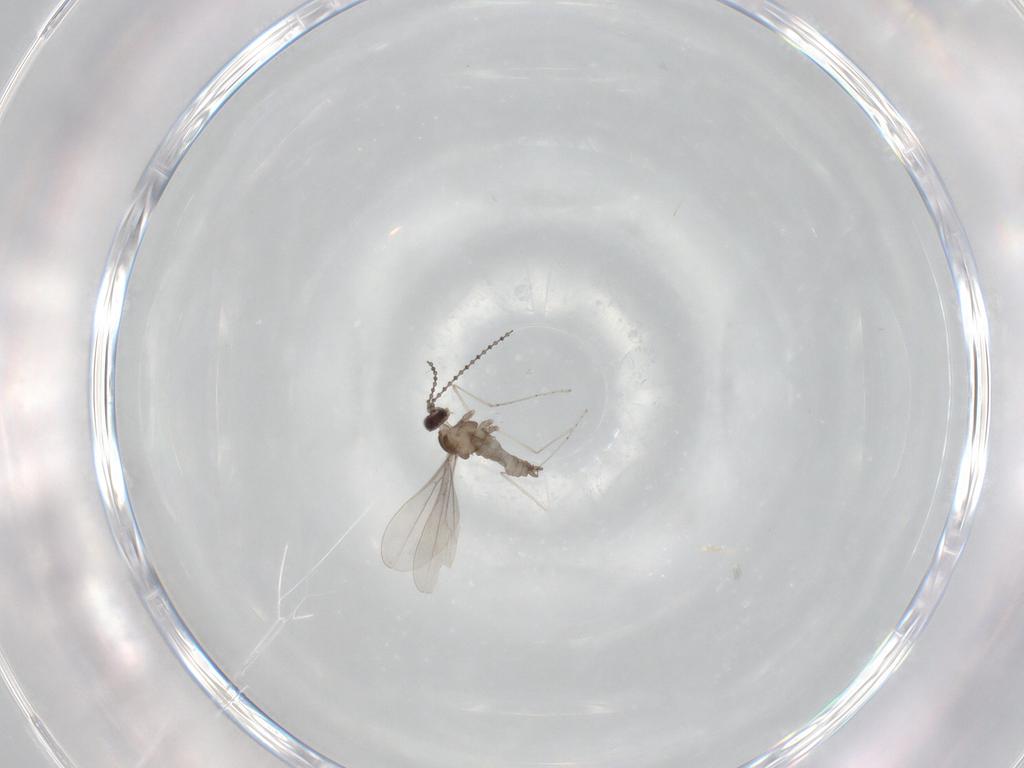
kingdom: Animalia
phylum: Arthropoda
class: Insecta
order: Diptera
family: Cecidomyiidae
